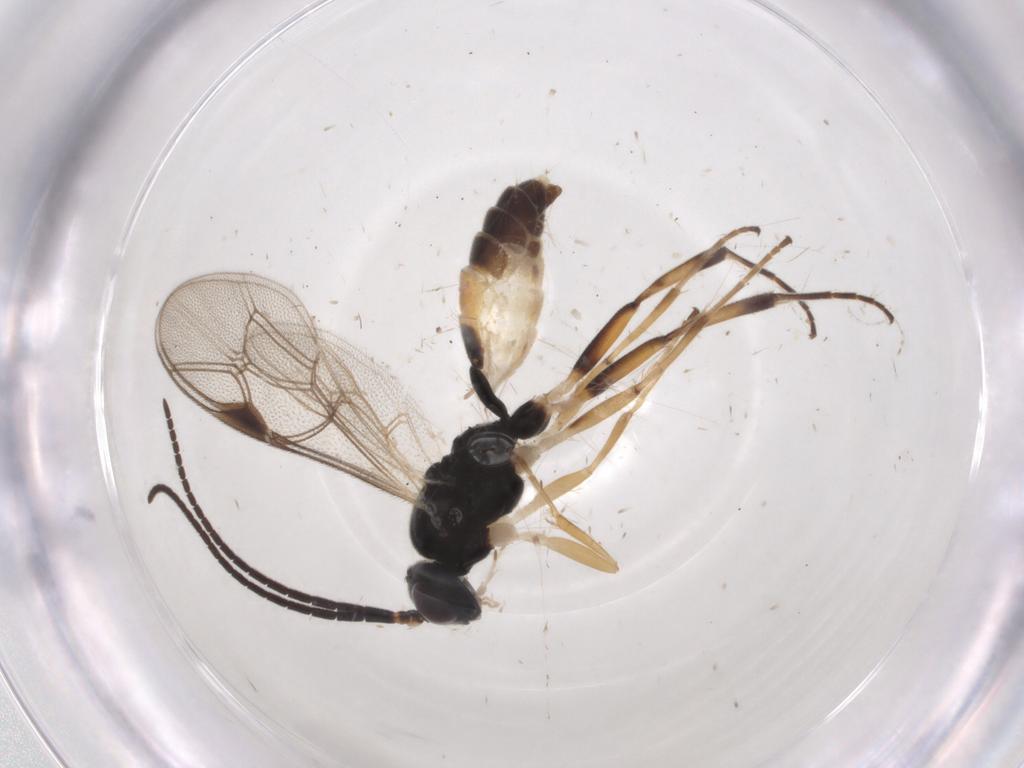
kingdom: Animalia
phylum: Arthropoda
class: Insecta
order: Hymenoptera
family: Ichneumonidae
